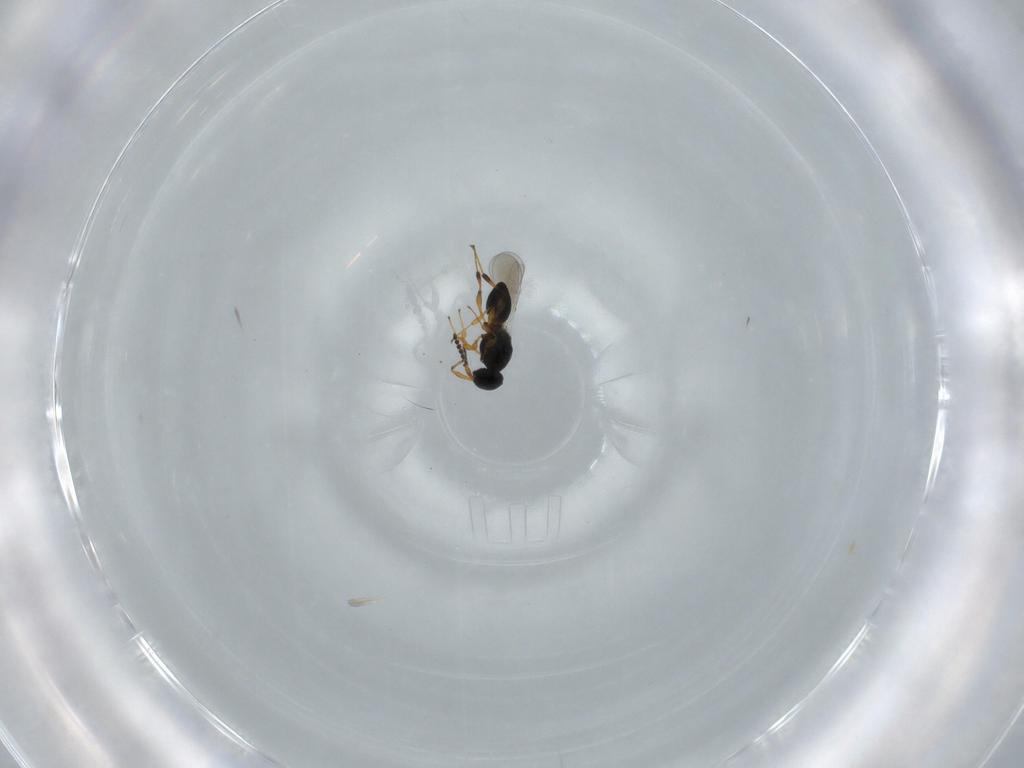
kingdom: Animalia
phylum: Arthropoda
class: Insecta
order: Hymenoptera
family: Platygastridae
